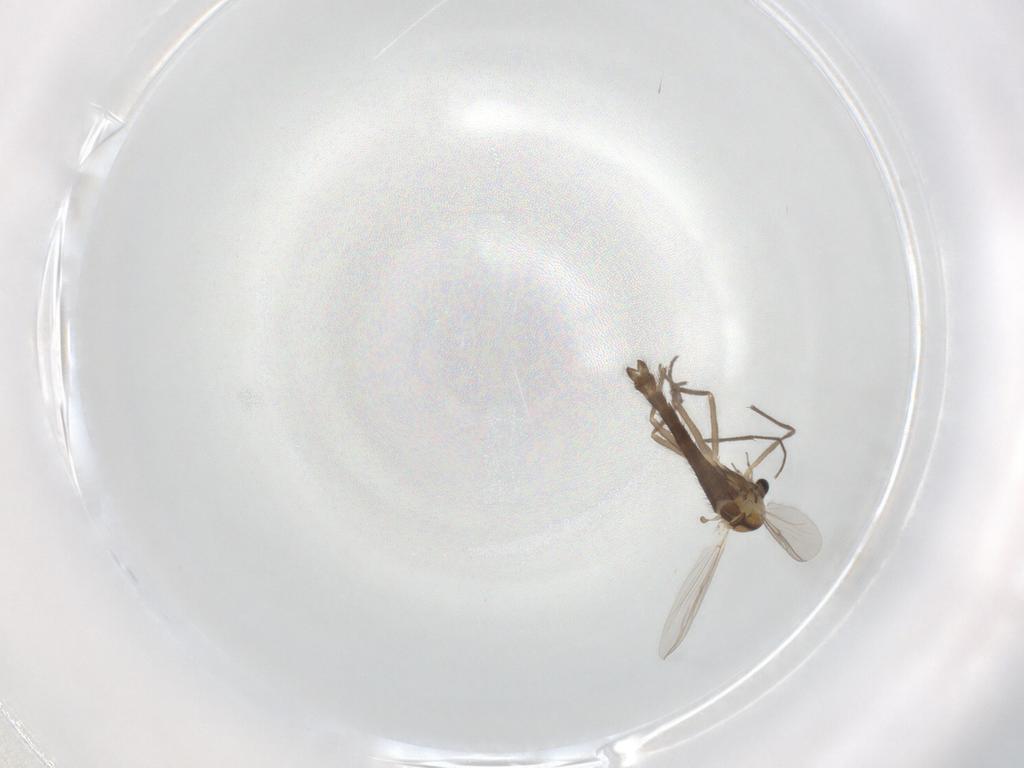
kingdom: Animalia
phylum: Arthropoda
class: Insecta
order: Diptera
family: Chironomidae
